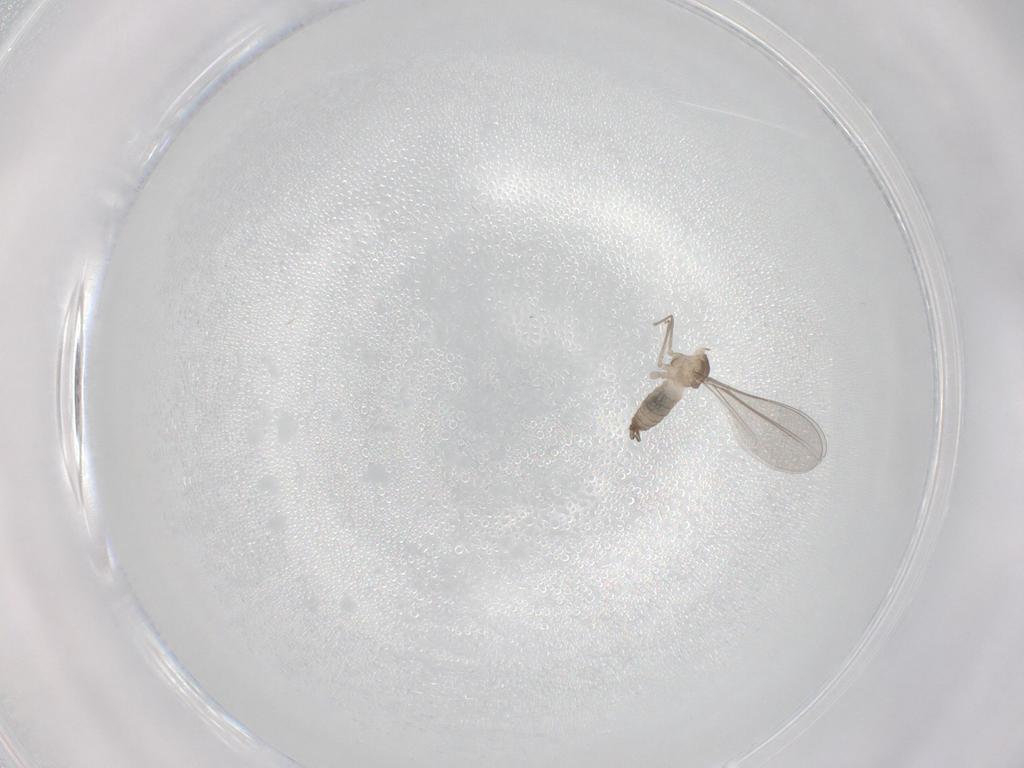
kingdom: Animalia
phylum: Arthropoda
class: Insecta
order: Diptera
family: Cecidomyiidae
